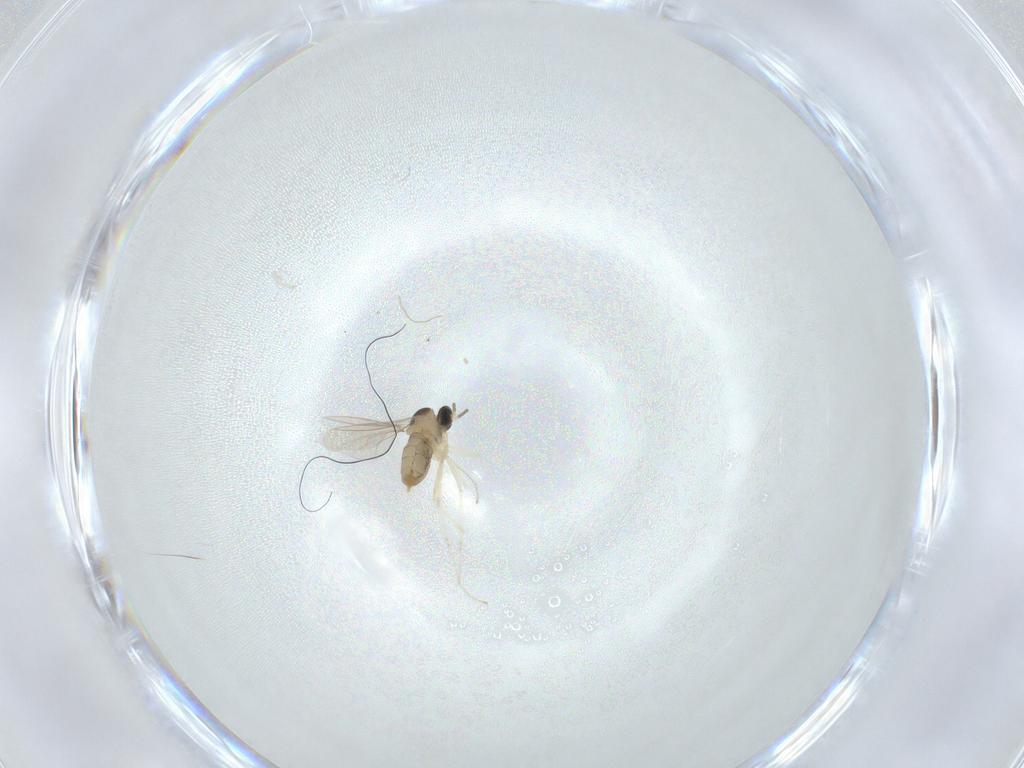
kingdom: Animalia
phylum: Arthropoda
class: Insecta
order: Diptera
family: Cecidomyiidae
